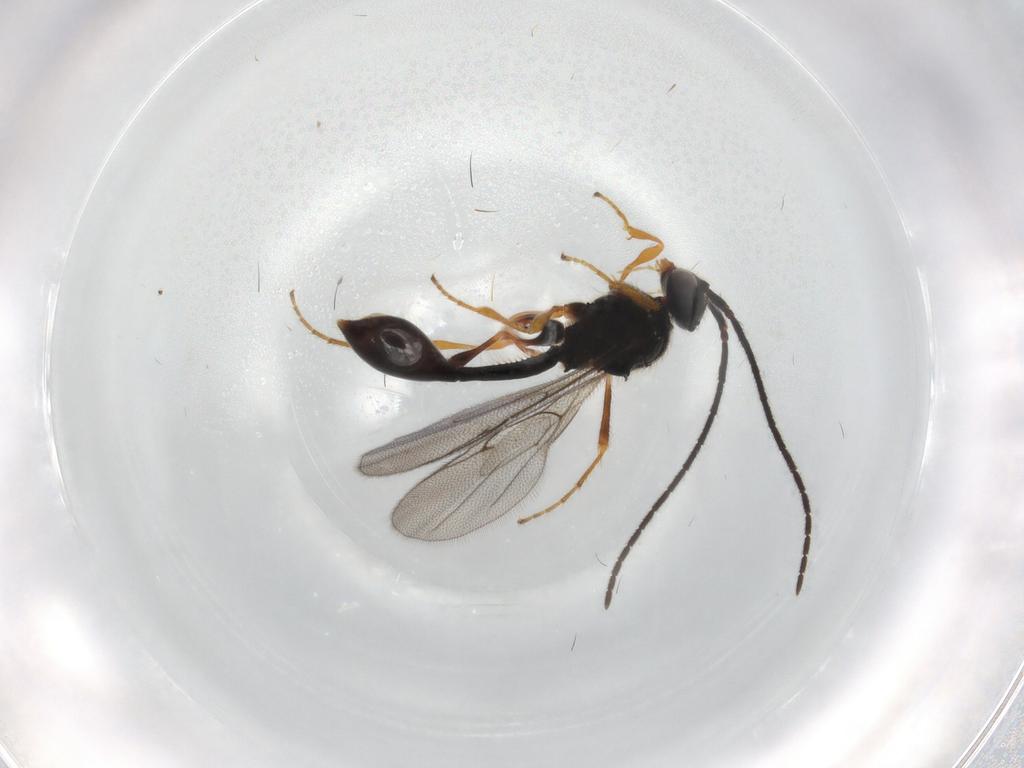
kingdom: Animalia
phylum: Arthropoda
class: Insecta
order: Hymenoptera
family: Diapriidae
